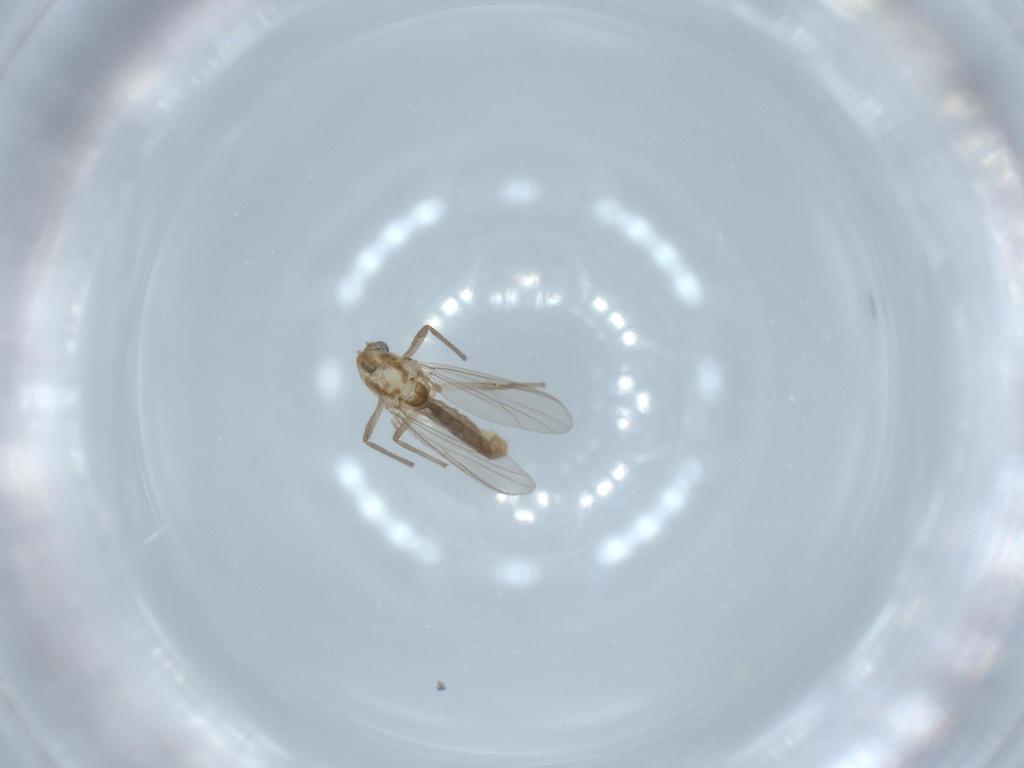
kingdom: Animalia
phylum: Arthropoda
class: Insecta
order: Diptera
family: Chironomidae
